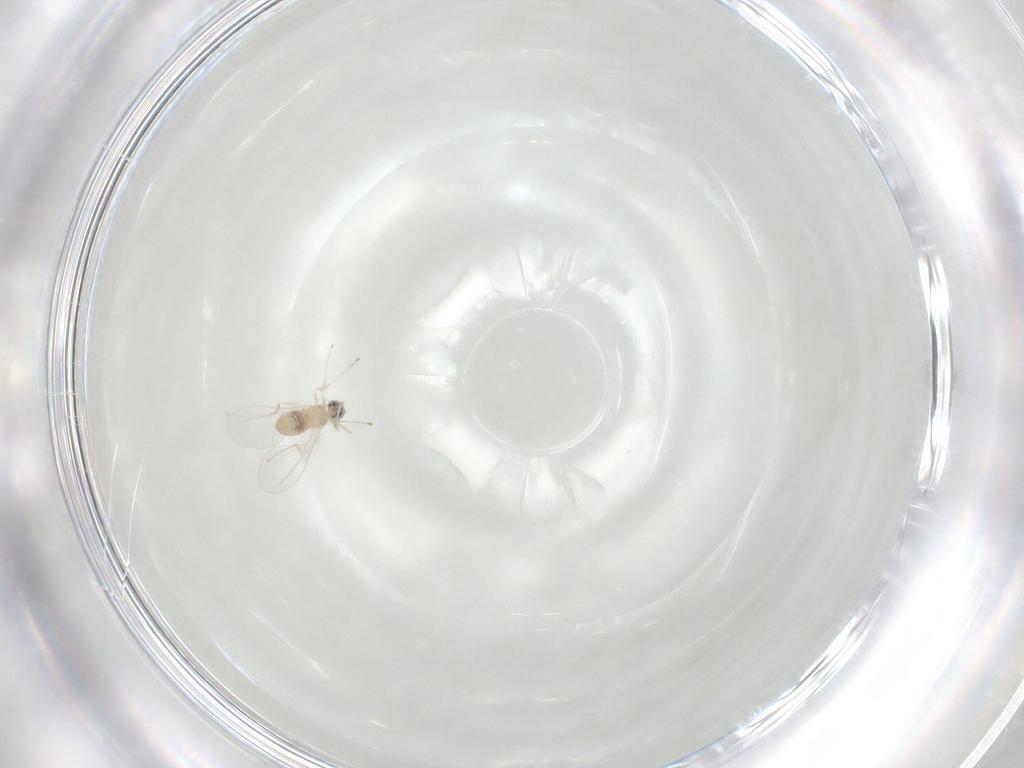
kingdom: Animalia
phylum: Arthropoda
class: Insecta
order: Diptera
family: Cecidomyiidae
